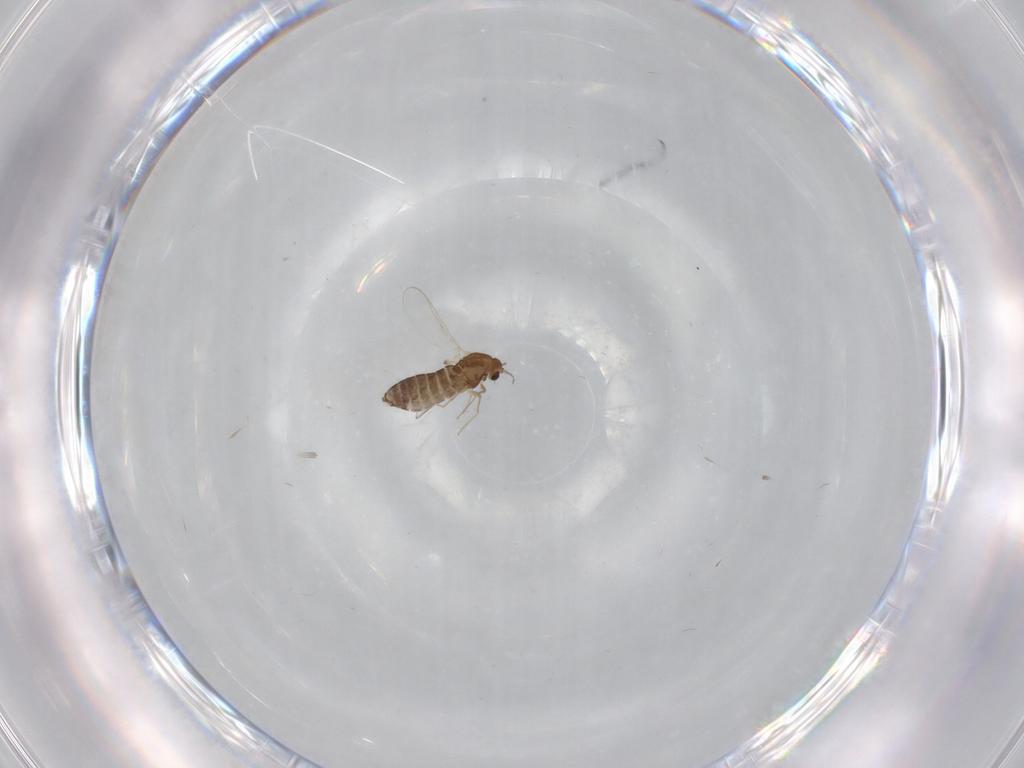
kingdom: Animalia
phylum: Arthropoda
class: Insecta
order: Diptera
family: Chironomidae
